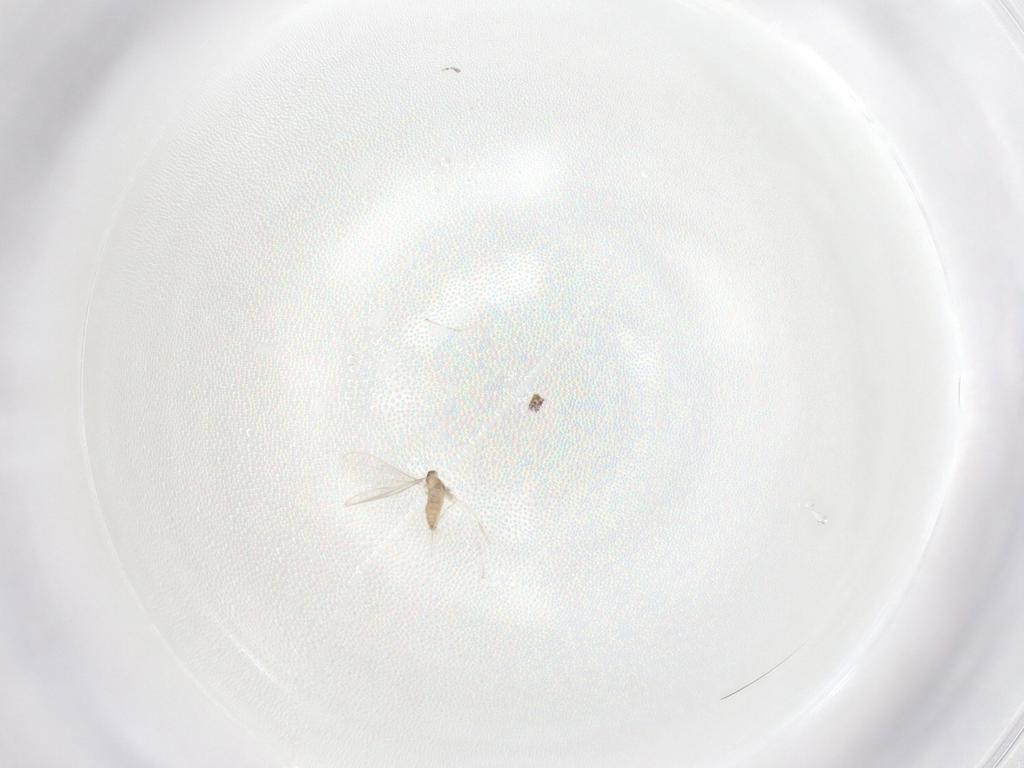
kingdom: Animalia
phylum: Arthropoda
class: Insecta
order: Diptera
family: Cecidomyiidae
